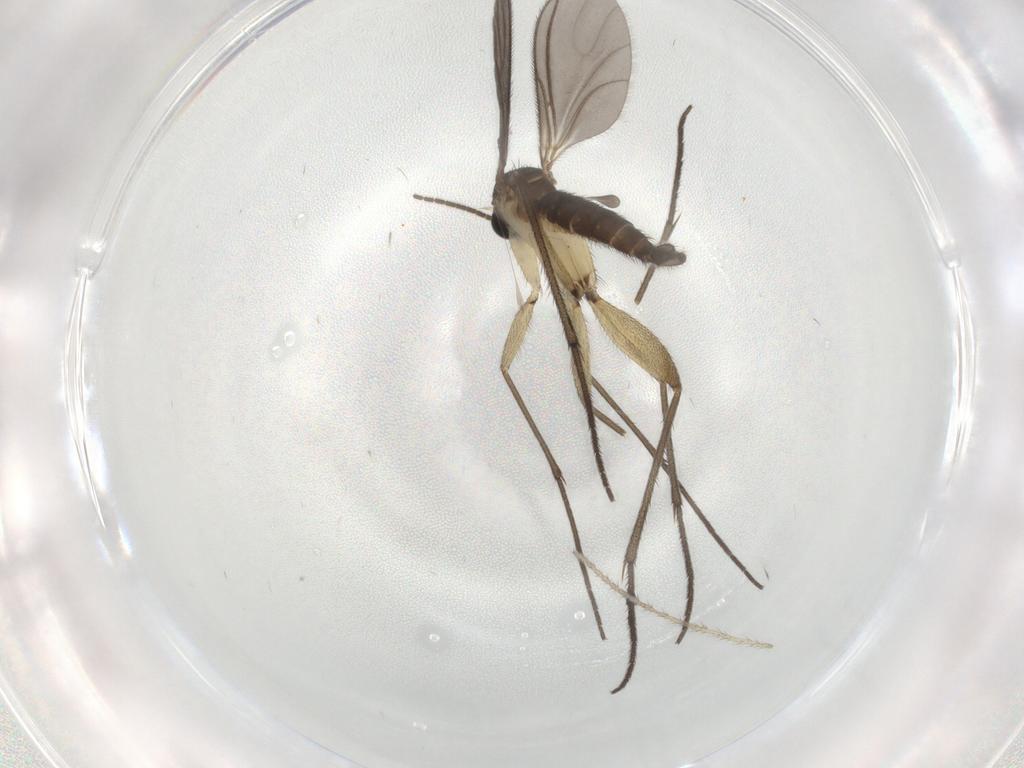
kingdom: Animalia
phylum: Arthropoda
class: Insecta
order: Diptera
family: Sciaridae
